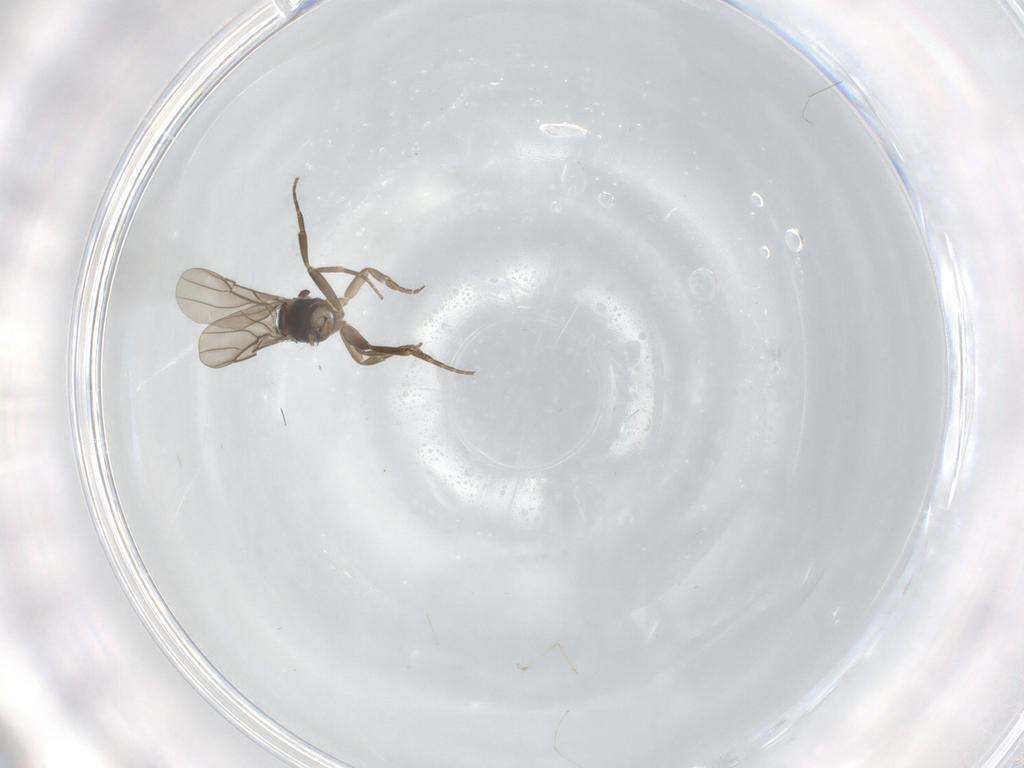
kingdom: Animalia
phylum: Arthropoda
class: Insecta
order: Diptera
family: Cecidomyiidae
